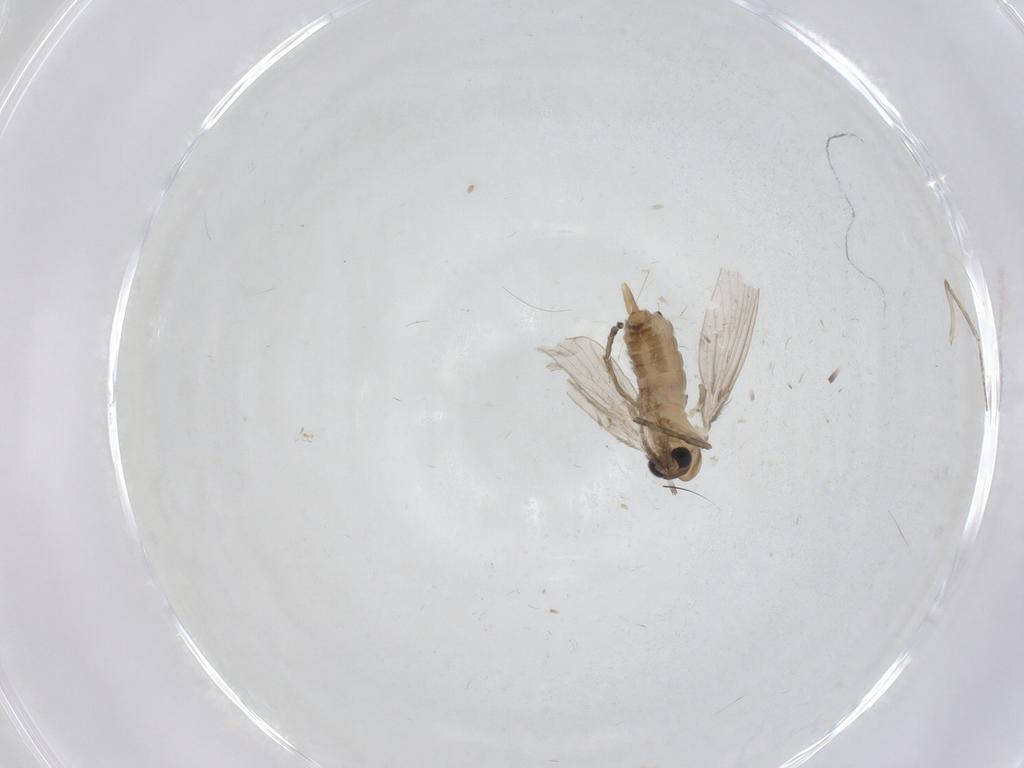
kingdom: Animalia
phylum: Arthropoda
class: Insecta
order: Diptera
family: Psychodidae
